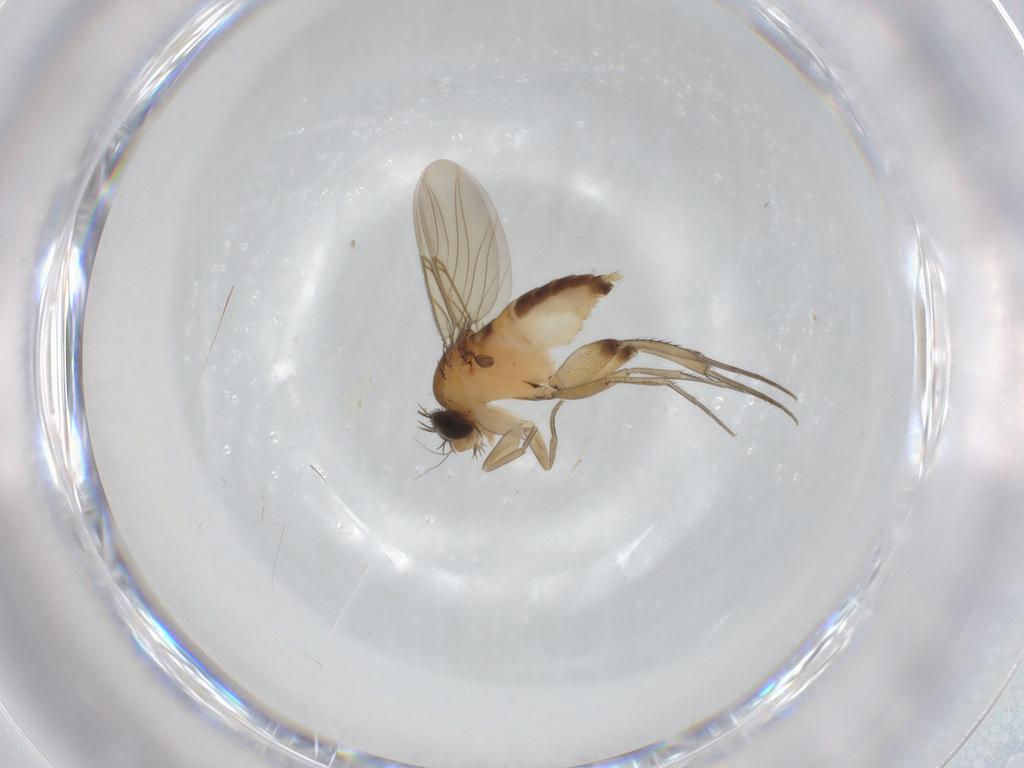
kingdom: Animalia
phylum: Arthropoda
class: Insecta
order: Diptera
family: Phoridae
